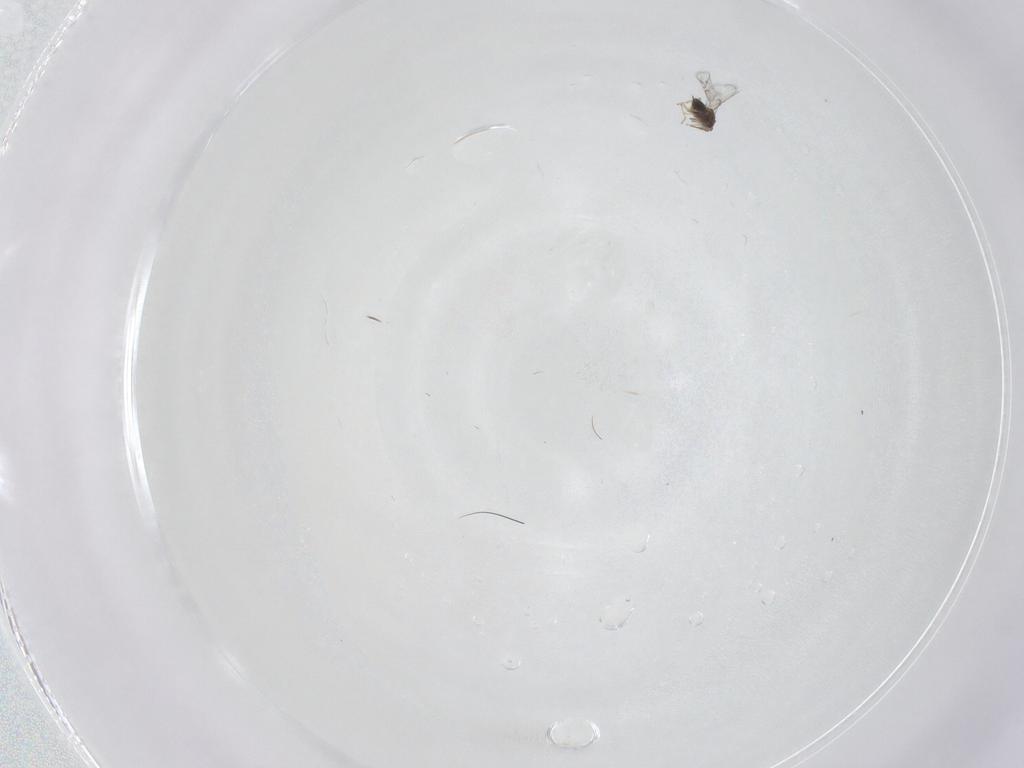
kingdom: Animalia
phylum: Arthropoda
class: Insecta
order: Hymenoptera
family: Trichogrammatidae
